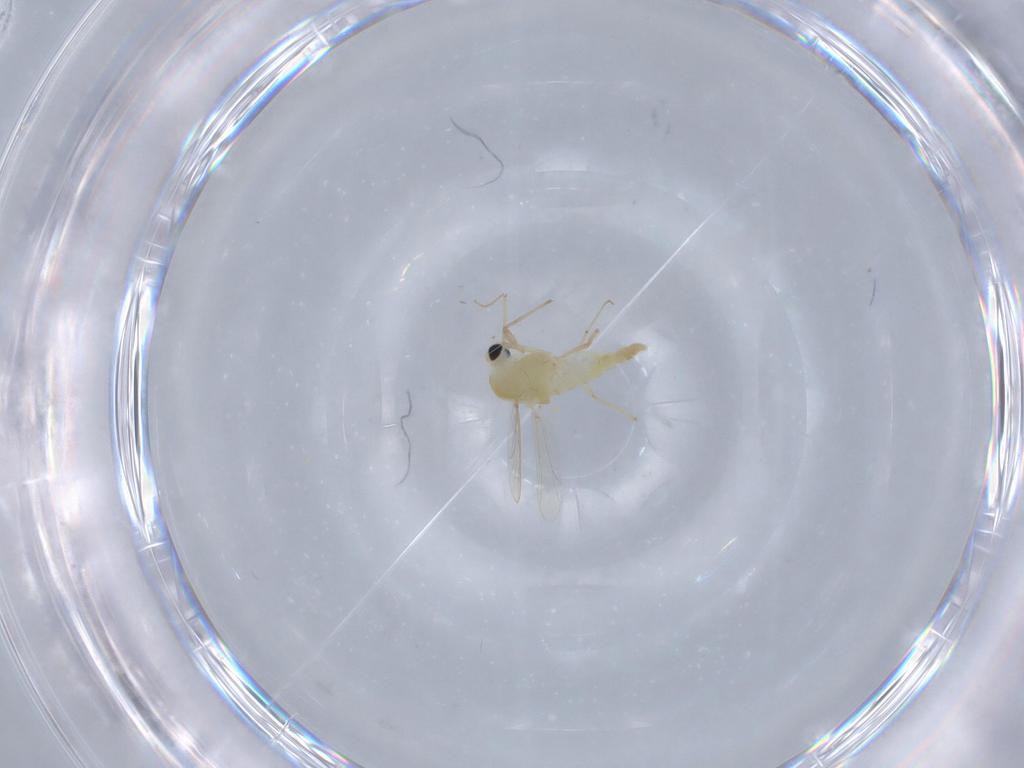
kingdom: Animalia
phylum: Arthropoda
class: Insecta
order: Diptera
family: Chironomidae
